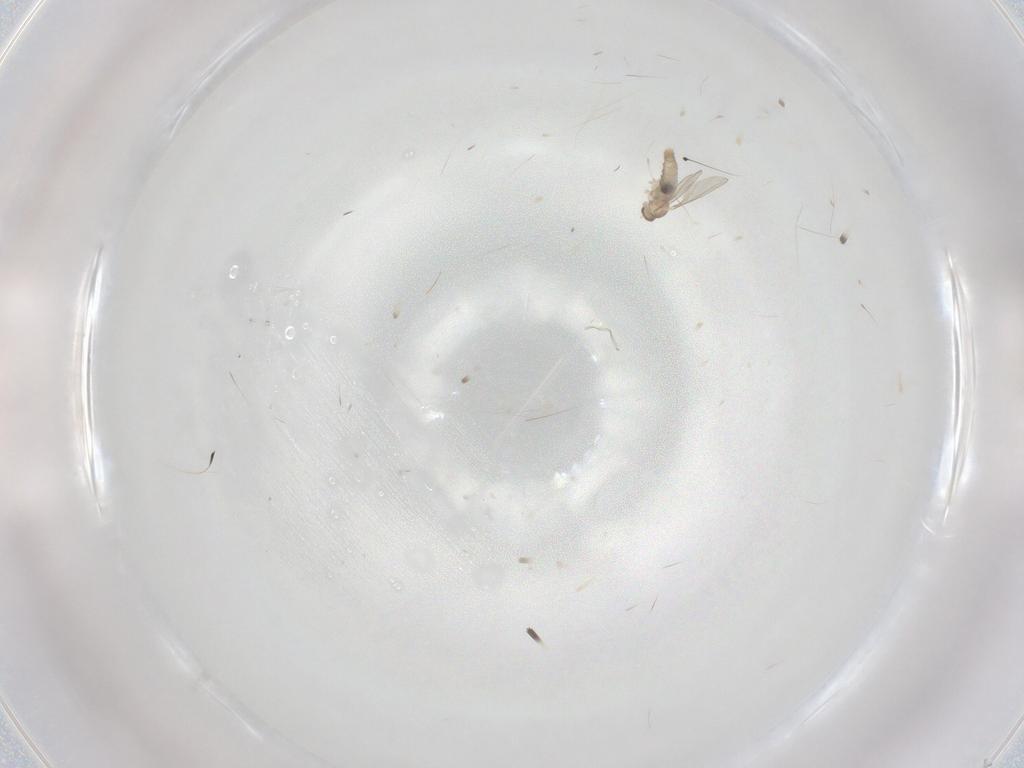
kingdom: Animalia
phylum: Arthropoda
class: Insecta
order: Diptera
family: Cecidomyiidae
